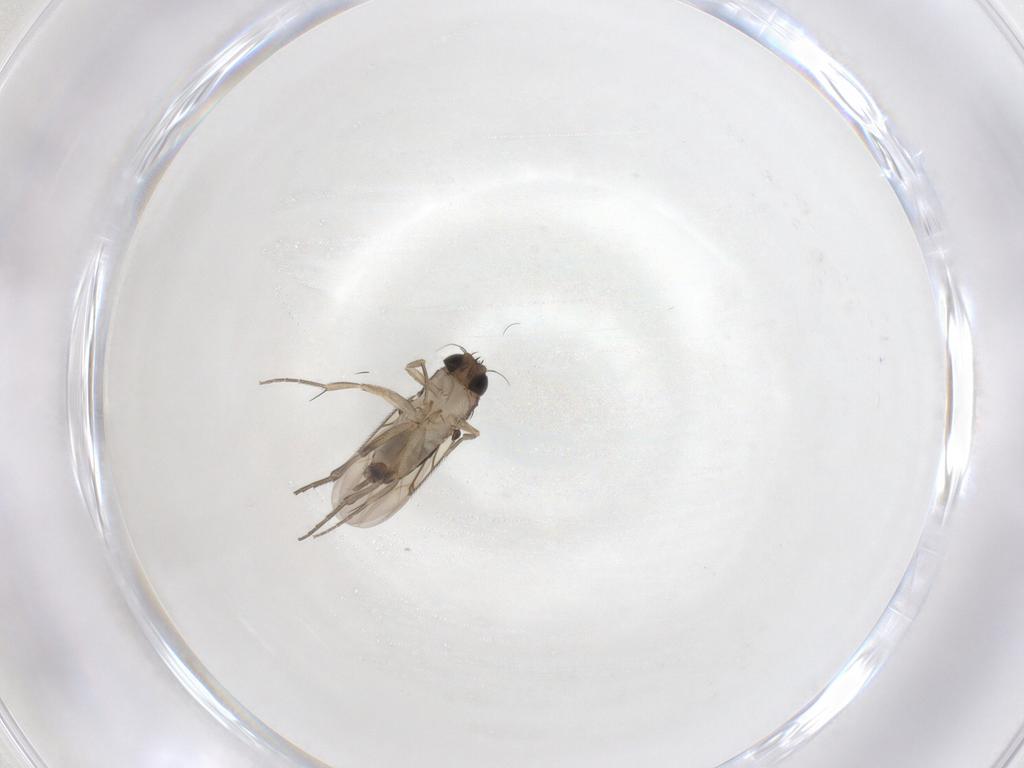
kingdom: Animalia
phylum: Arthropoda
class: Insecta
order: Diptera
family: Phoridae
